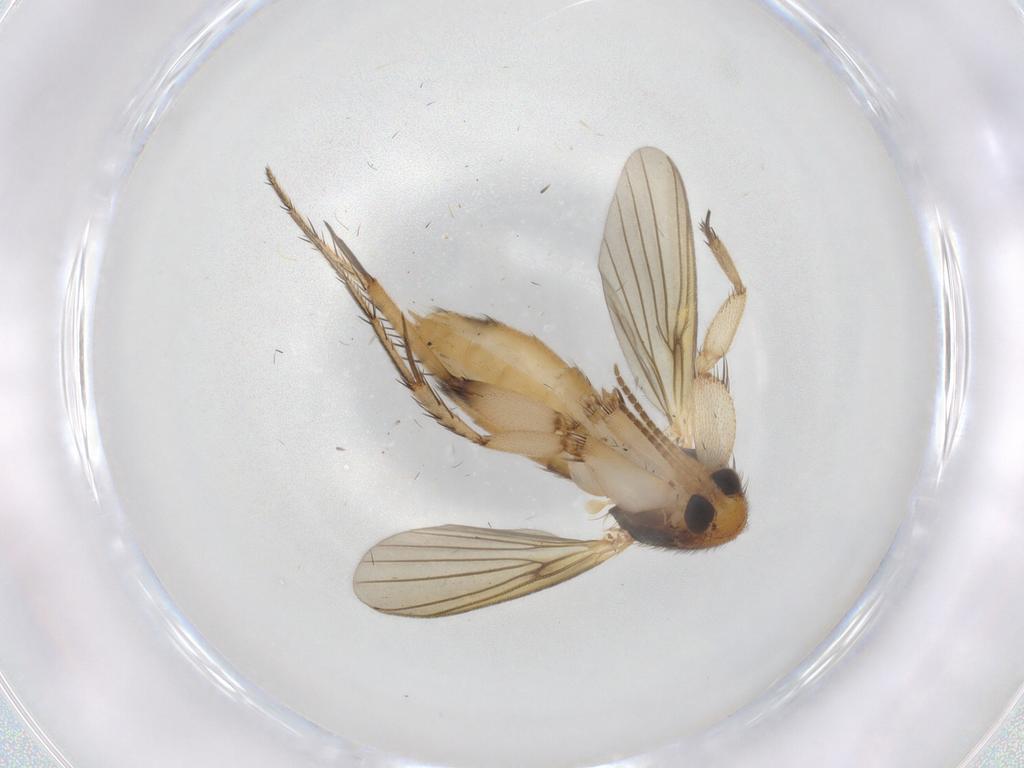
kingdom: Animalia
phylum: Arthropoda
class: Insecta
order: Diptera
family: Mycetophilidae
